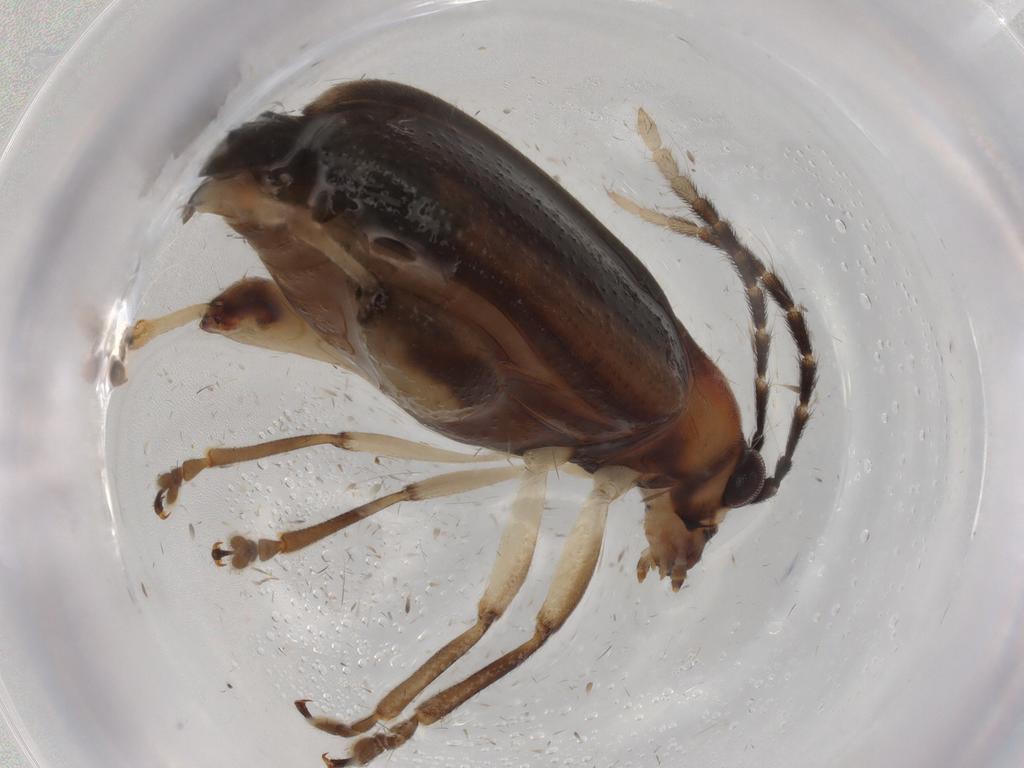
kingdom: Animalia
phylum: Arthropoda
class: Insecta
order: Coleoptera
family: Chrysomelidae
